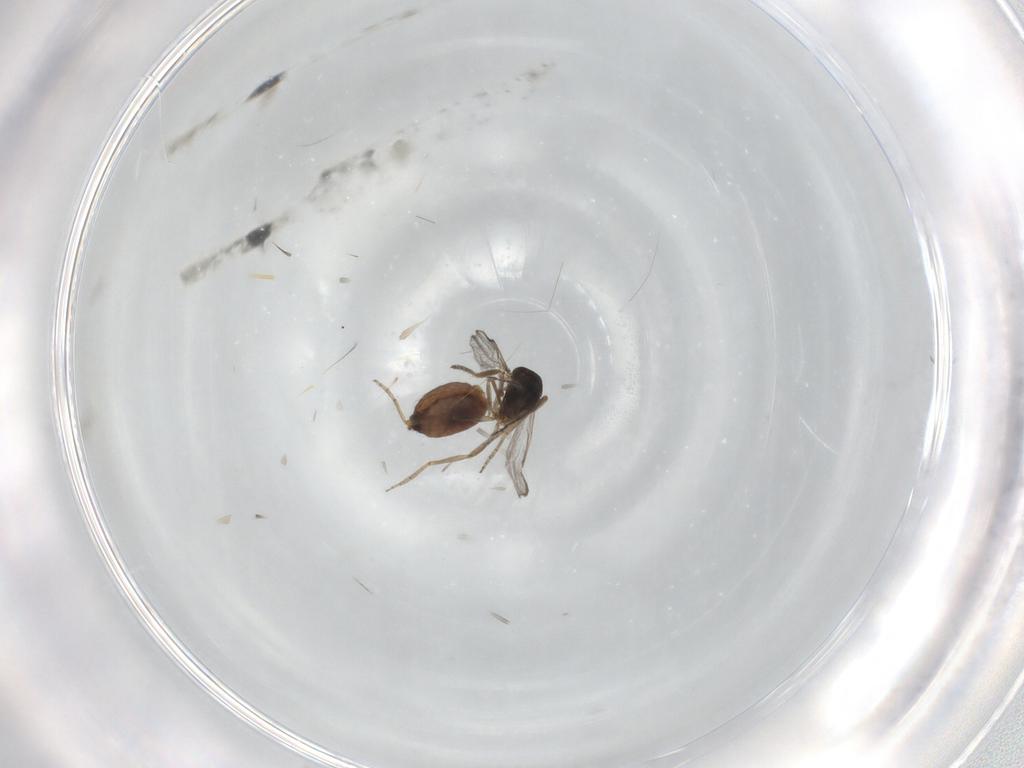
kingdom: Animalia
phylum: Arthropoda
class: Insecta
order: Diptera
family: Ceratopogonidae
